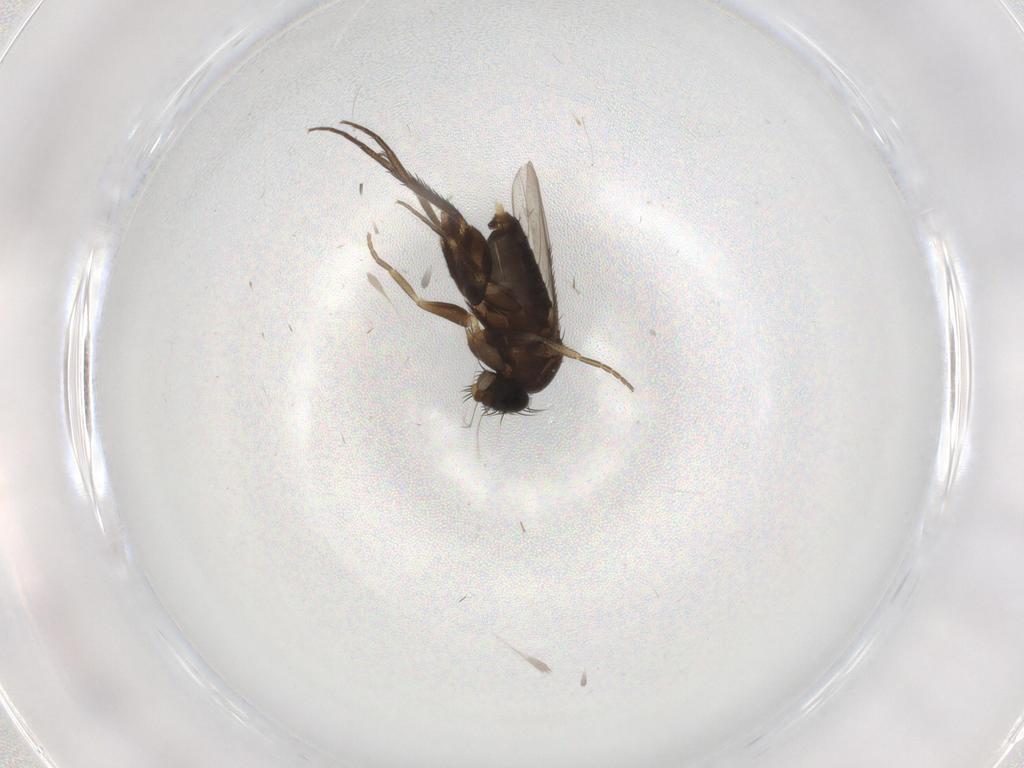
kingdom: Animalia
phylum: Arthropoda
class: Insecta
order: Diptera
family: Phoridae
